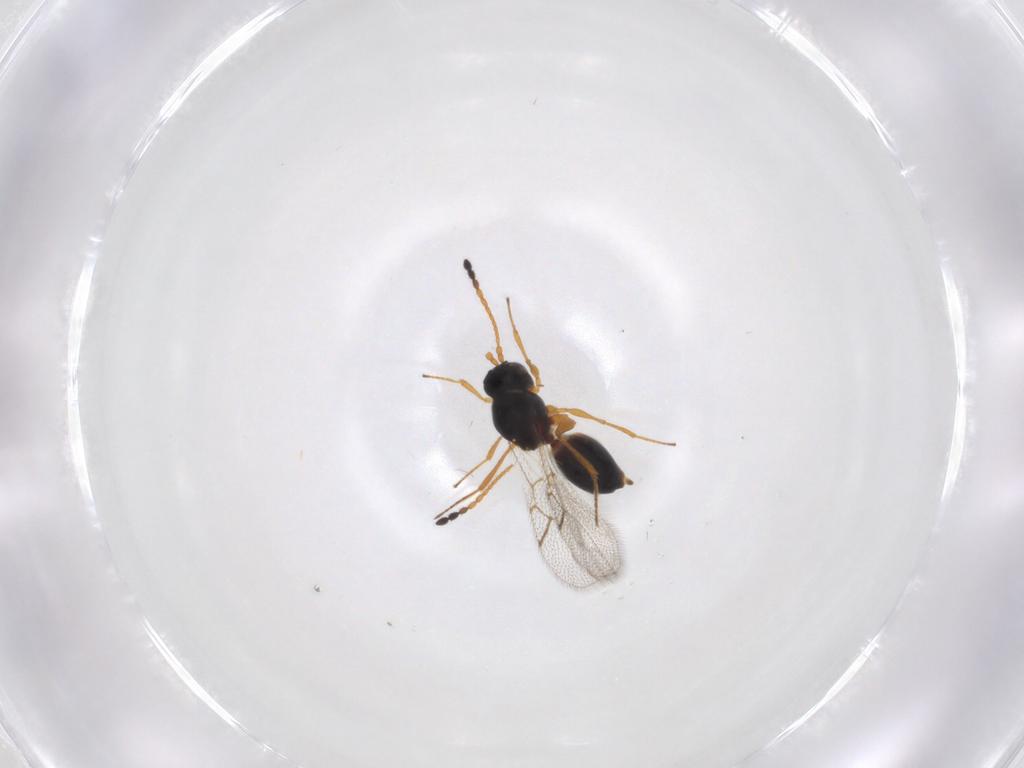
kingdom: Animalia
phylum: Arthropoda
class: Insecta
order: Hymenoptera
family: Figitidae
